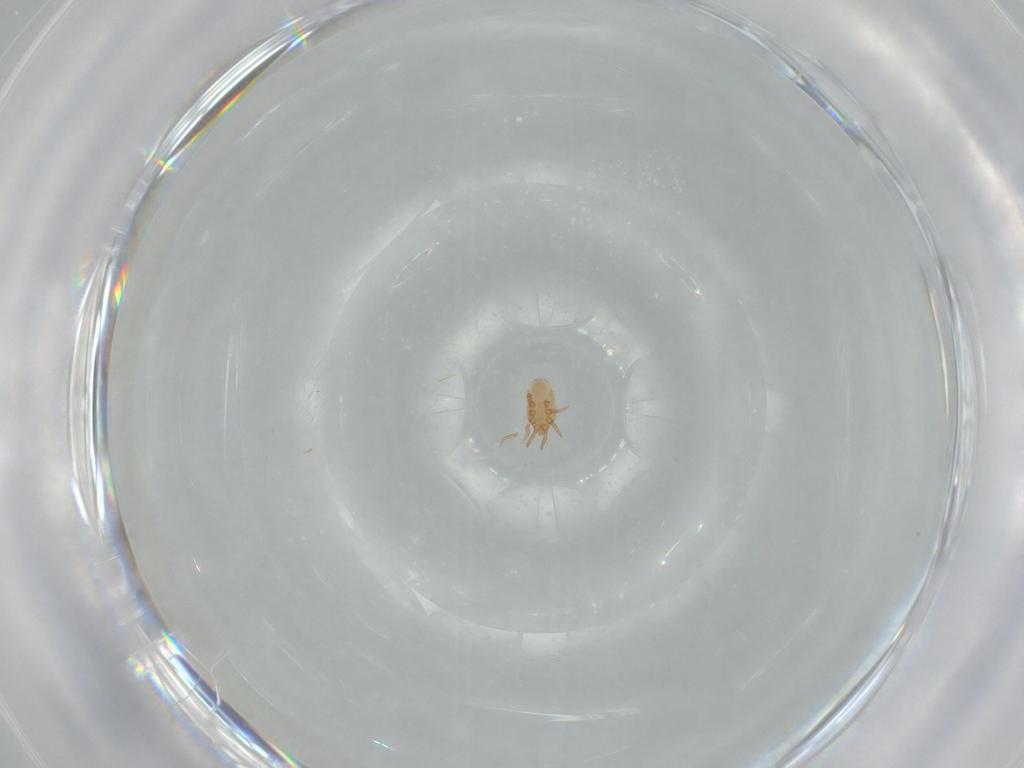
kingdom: Animalia
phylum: Arthropoda
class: Arachnida
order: Mesostigmata
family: Dinychidae
